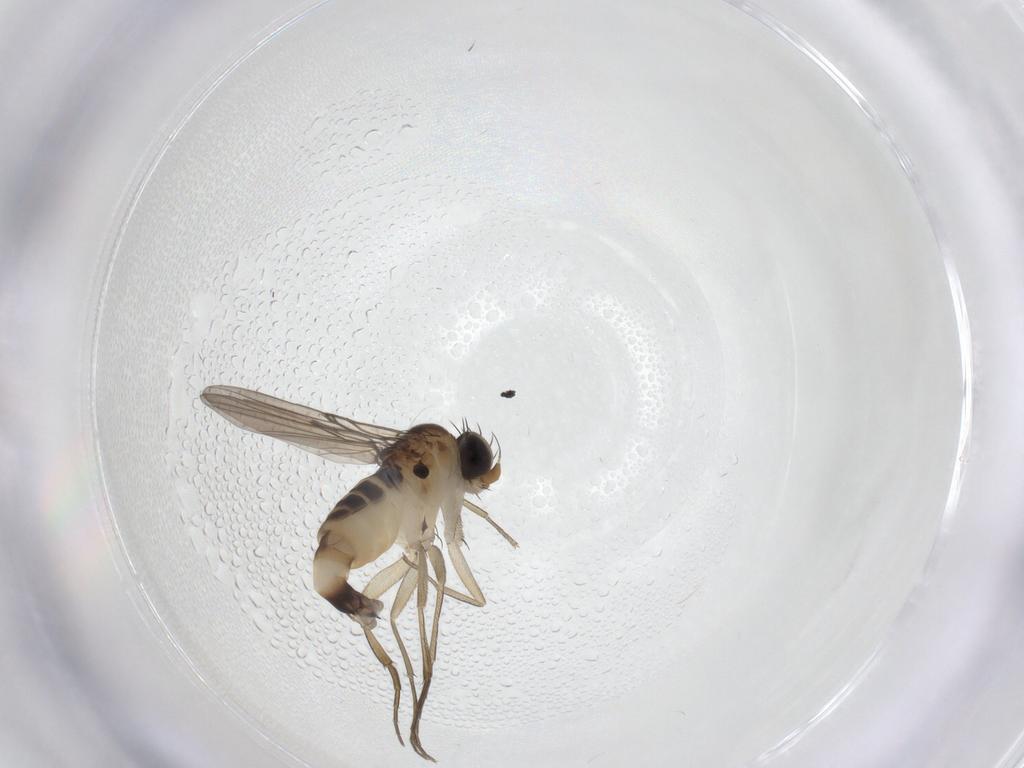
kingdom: Animalia
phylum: Arthropoda
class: Insecta
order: Diptera
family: Phoridae
